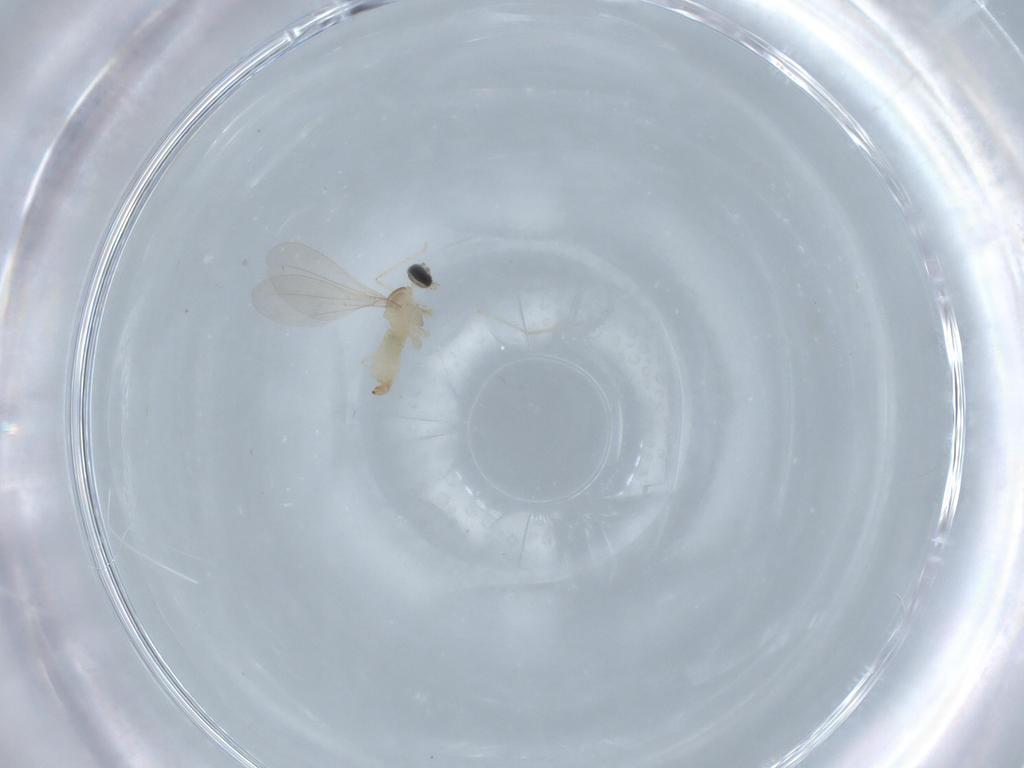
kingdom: Animalia
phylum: Arthropoda
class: Insecta
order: Diptera
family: Cecidomyiidae
